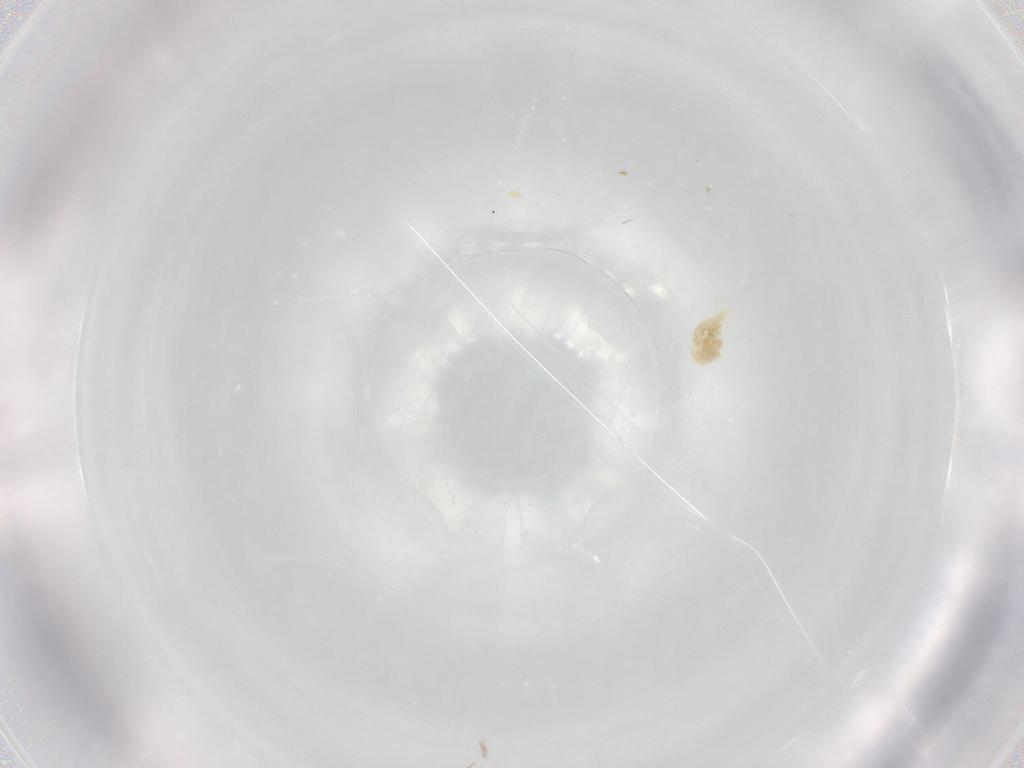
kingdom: Animalia
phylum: Arthropoda
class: Arachnida
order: Trombidiformes
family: Eupodidae
